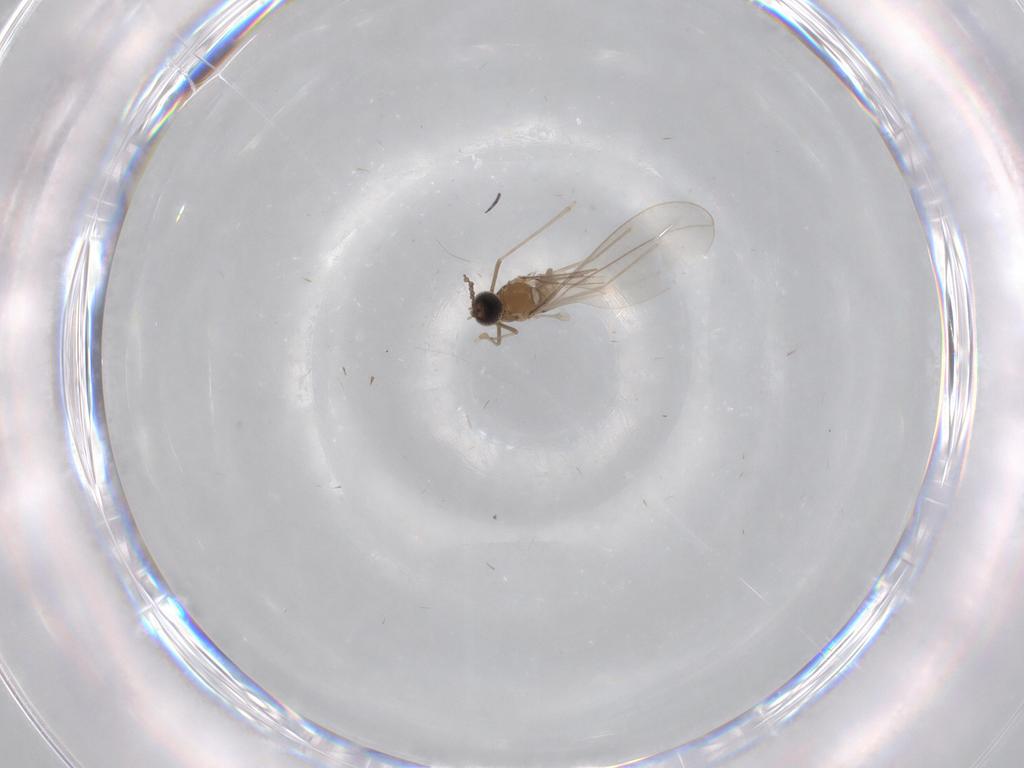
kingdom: Animalia
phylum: Arthropoda
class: Insecta
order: Diptera
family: Cecidomyiidae
